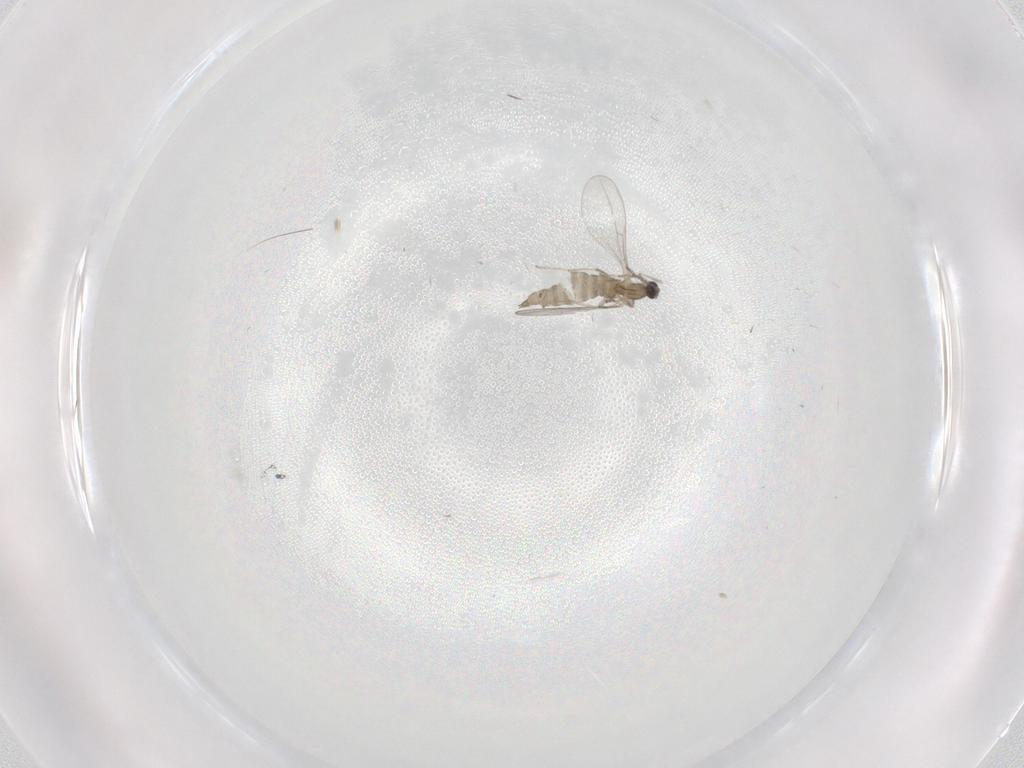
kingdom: Animalia
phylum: Arthropoda
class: Insecta
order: Diptera
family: Cecidomyiidae
